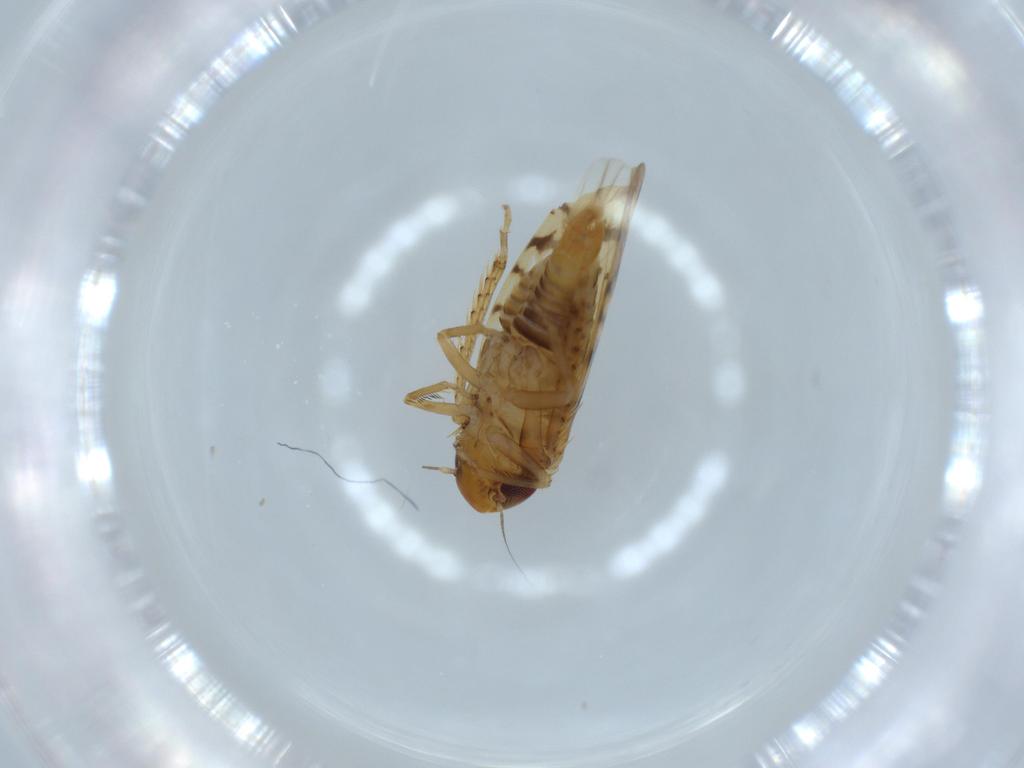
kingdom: Animalia
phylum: Arthropoda
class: Insecta
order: Hemiptera
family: Cicadellidae
